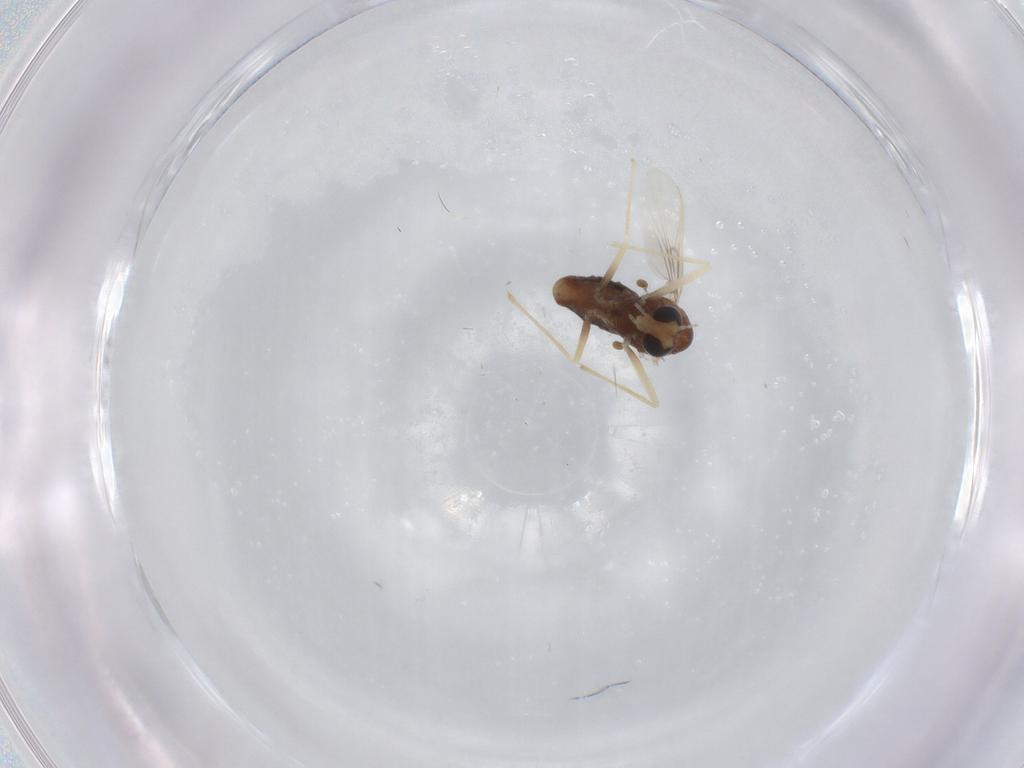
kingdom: Animalia
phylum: Arthropoda
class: Insecta
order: Diptera
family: Chironomidae
